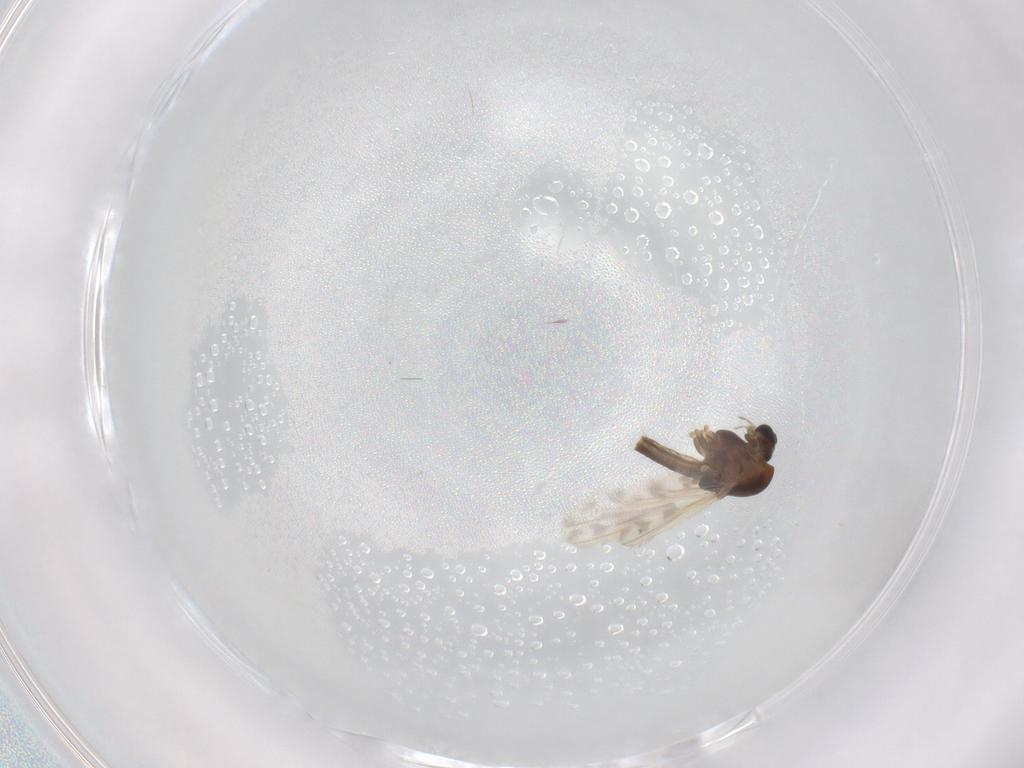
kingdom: Animalia
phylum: Arthropoda
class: Insecta
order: Diptera
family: Chironomidae
